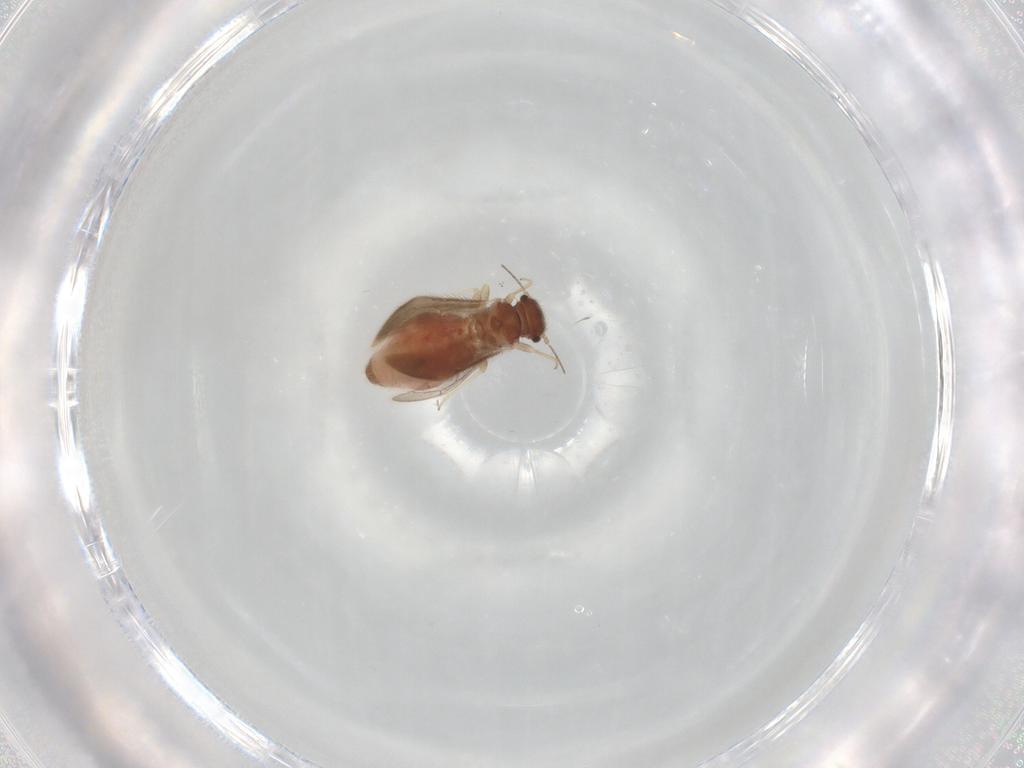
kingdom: Animalia
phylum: Arthropoda
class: Insecta
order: Psocodea
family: Archipsocidae
